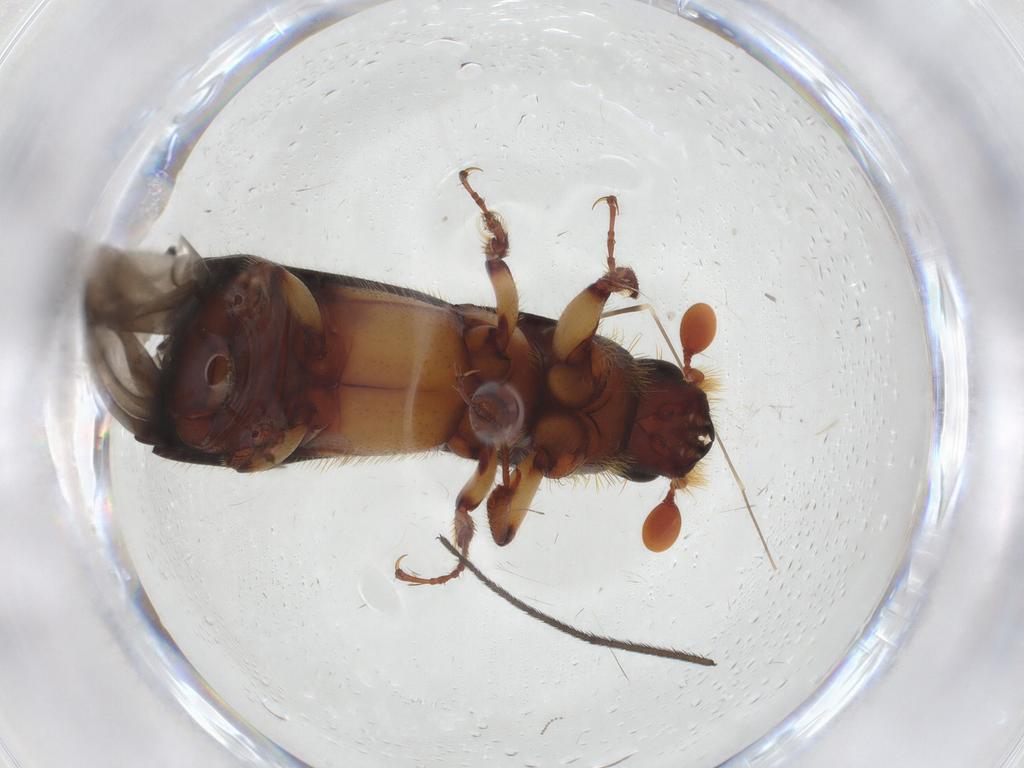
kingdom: Animalia
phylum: Arthropoda
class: Insecta
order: Coleoptera
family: Curculionidae
